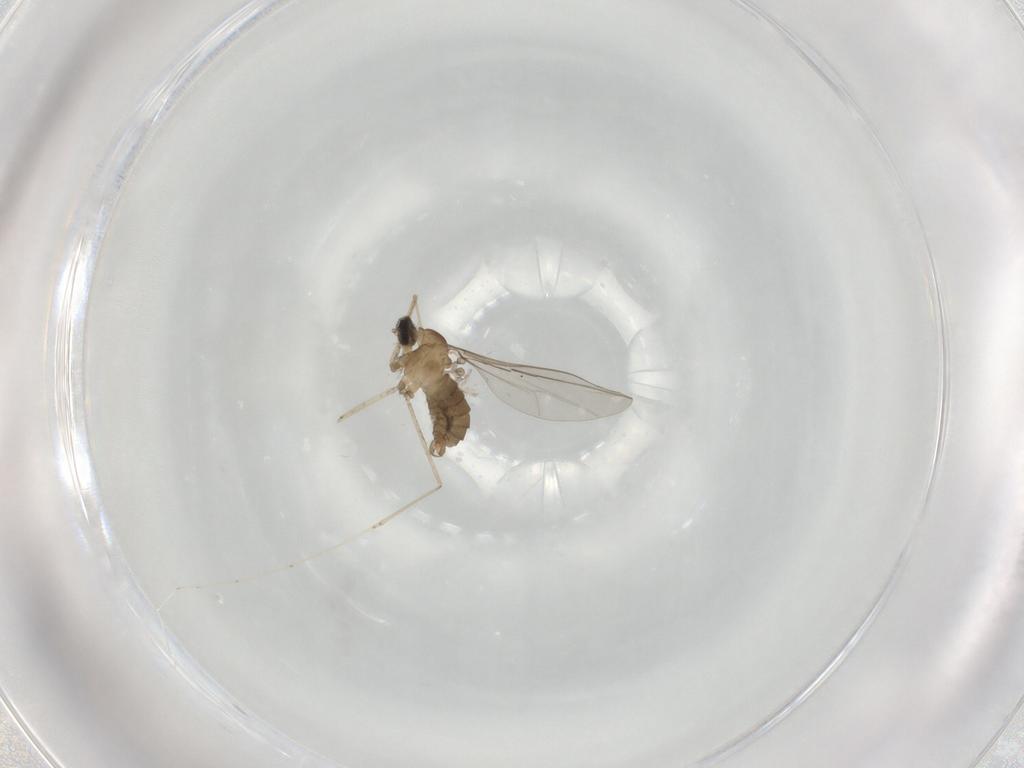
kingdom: Animalia
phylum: Arthropoda
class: Insecta
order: Diptera
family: Cecidomyiidae
